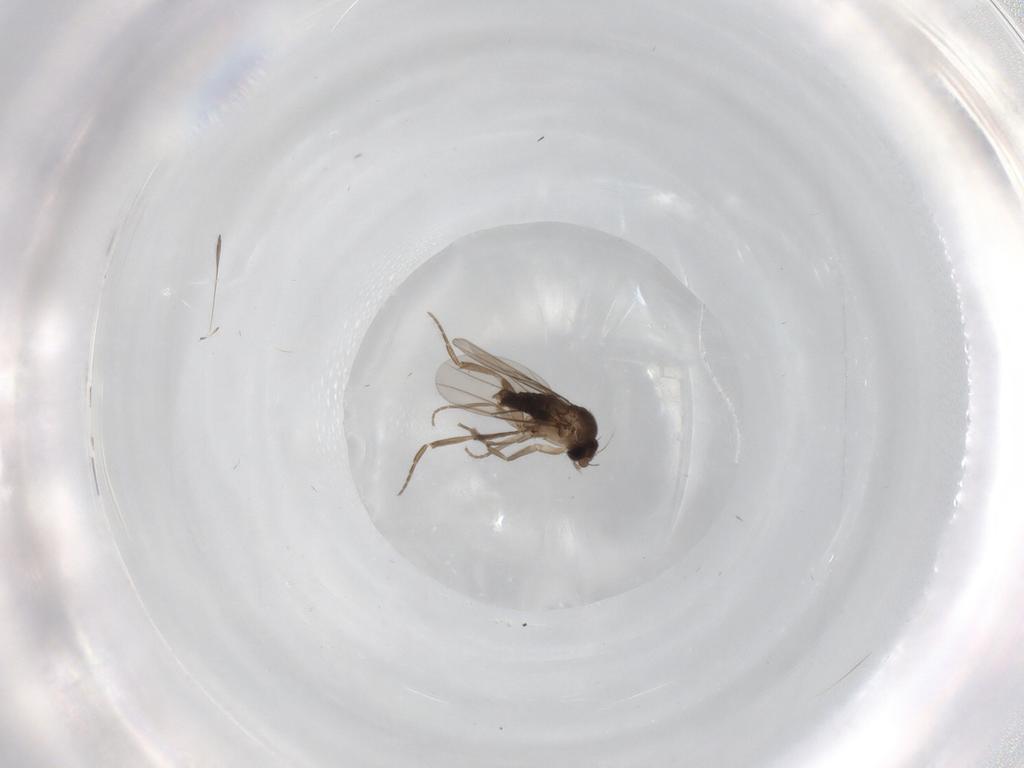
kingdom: Animalia
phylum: Arthropoda
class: Insecta
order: Diptera
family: Phoridae
